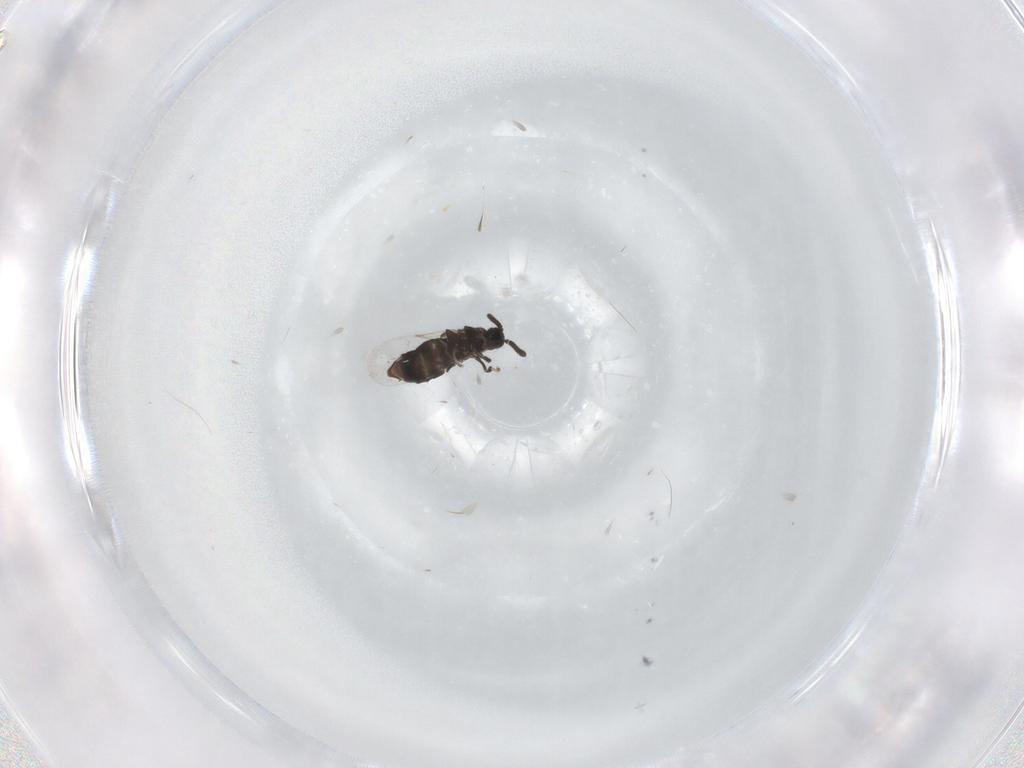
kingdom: Animalia
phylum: Arthropoda
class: Insecta
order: Diptera
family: Scatopsidae
